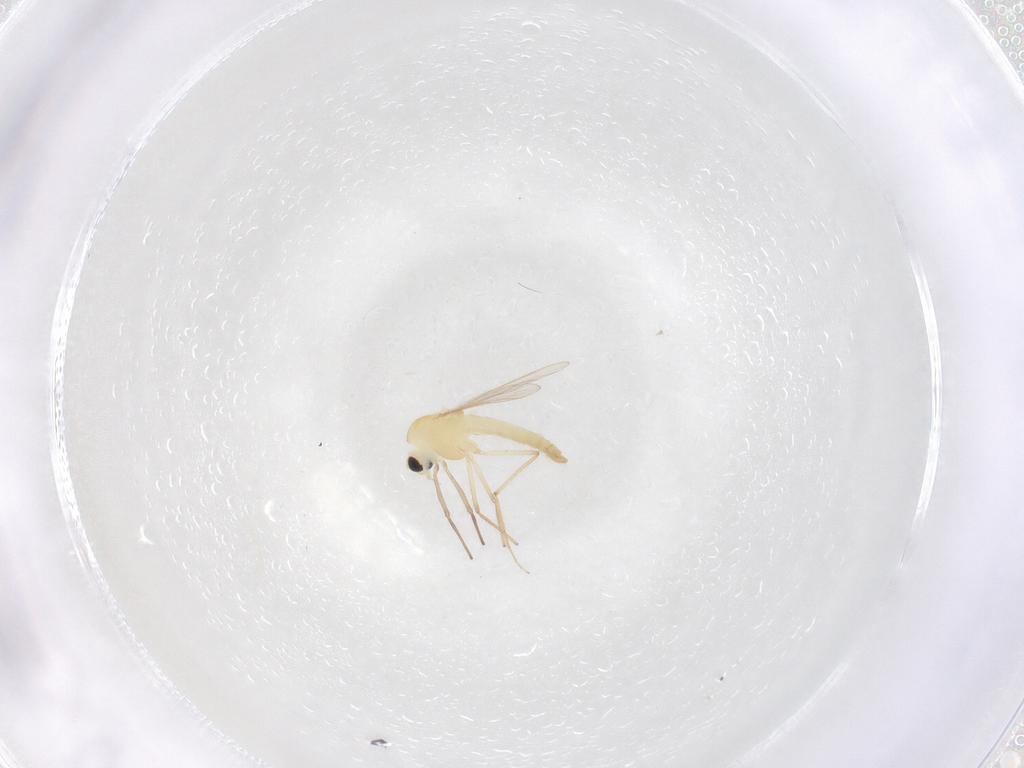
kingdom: Animalia
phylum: Arthropoda
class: Insecta
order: Diptera
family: Chironomidae
